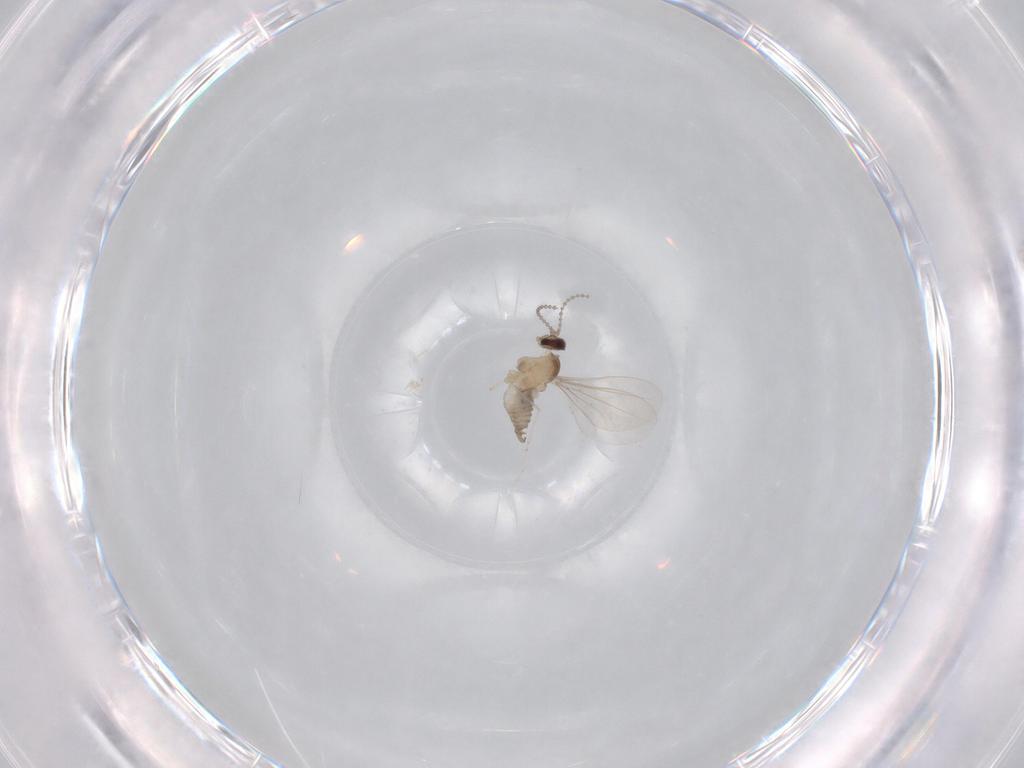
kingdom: Animalia
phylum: Arthropoda
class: Insecta
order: Diptera
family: Cecidomyiidae
